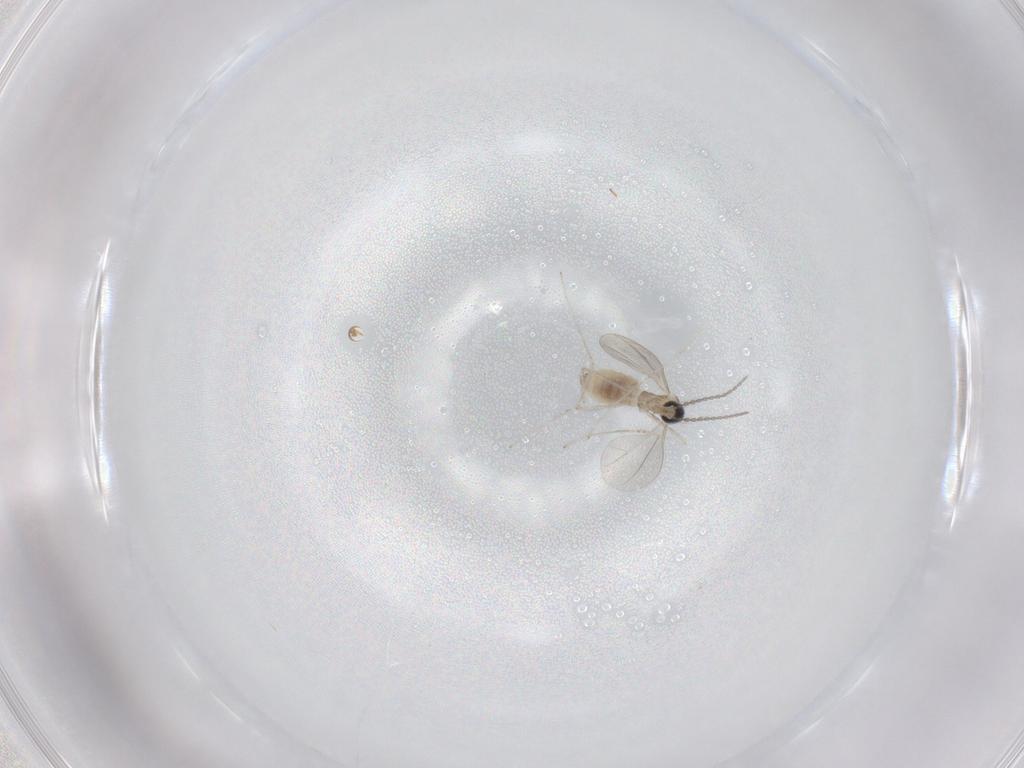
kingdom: Animalia
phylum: Arthropoda
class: Insecta
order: Diptera
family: Cecidomyiidae
